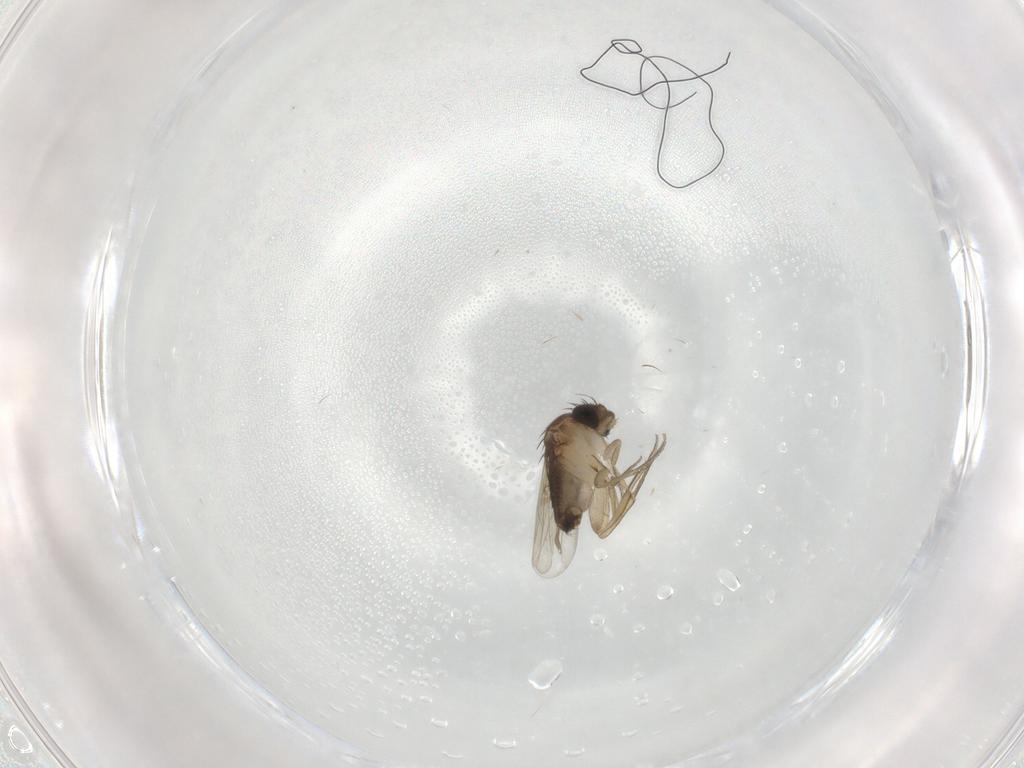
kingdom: Animalia
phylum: Arthropoda
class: Insecta
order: Diptera
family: Cecidomyiidae
